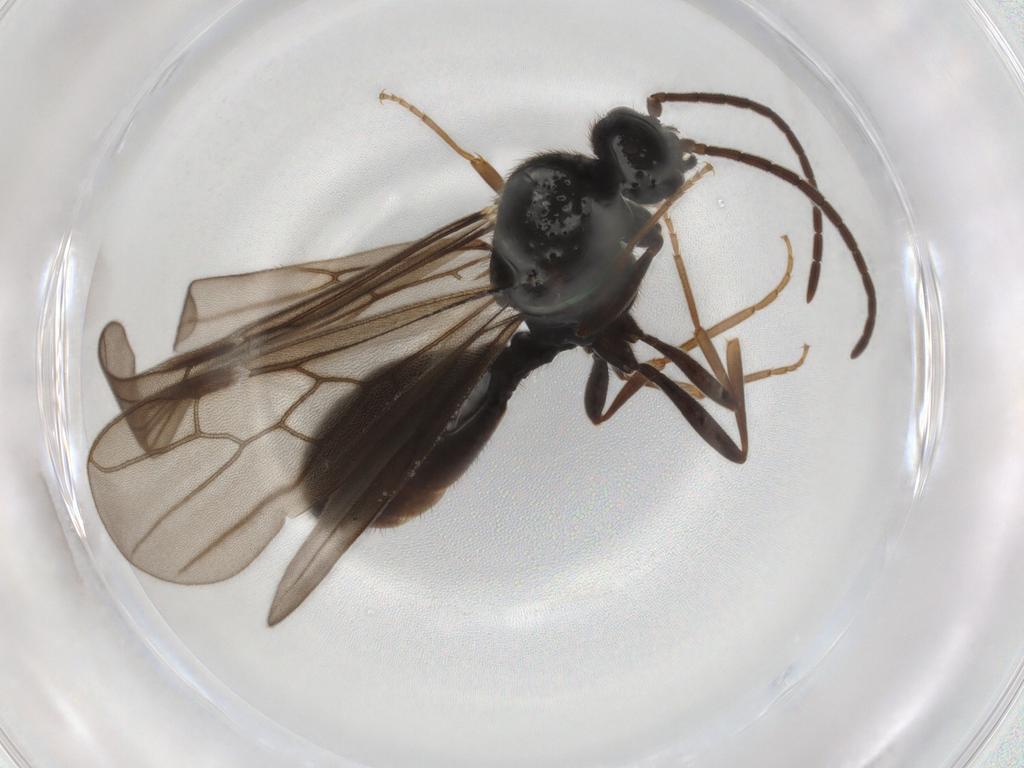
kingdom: Animalia
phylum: Arthropoda
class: Insecta
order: Hymenoptera
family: Formicidae
